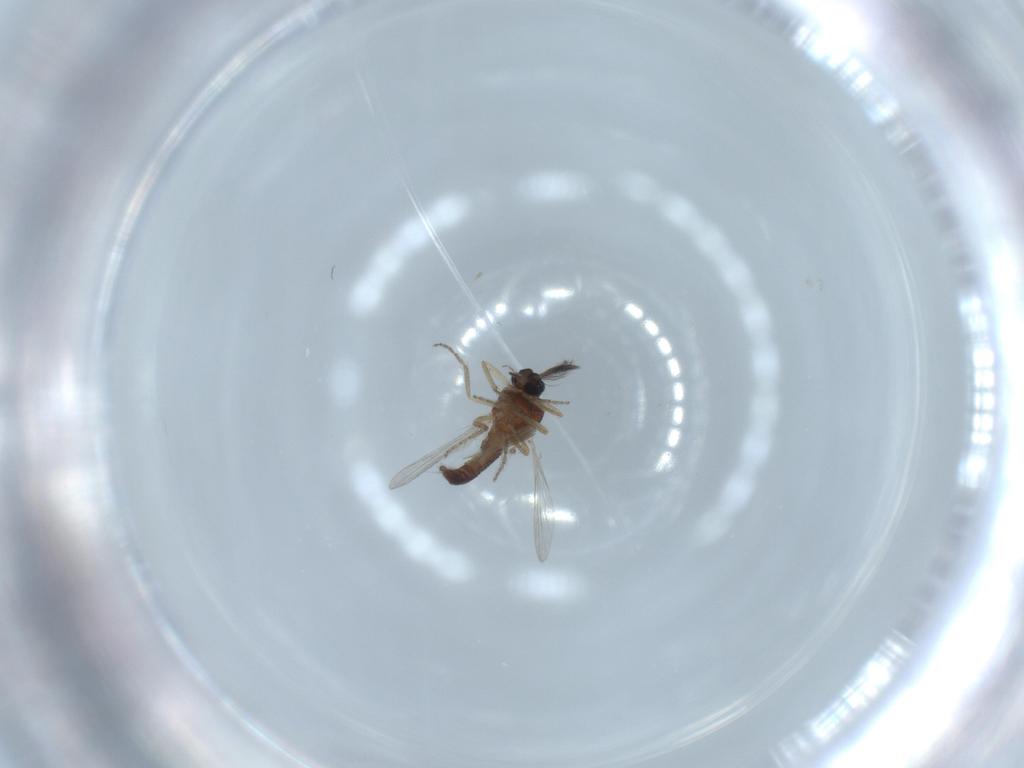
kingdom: Animalia
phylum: Arthropoda
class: Insecta
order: Diptera
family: Ceratopogonidae
